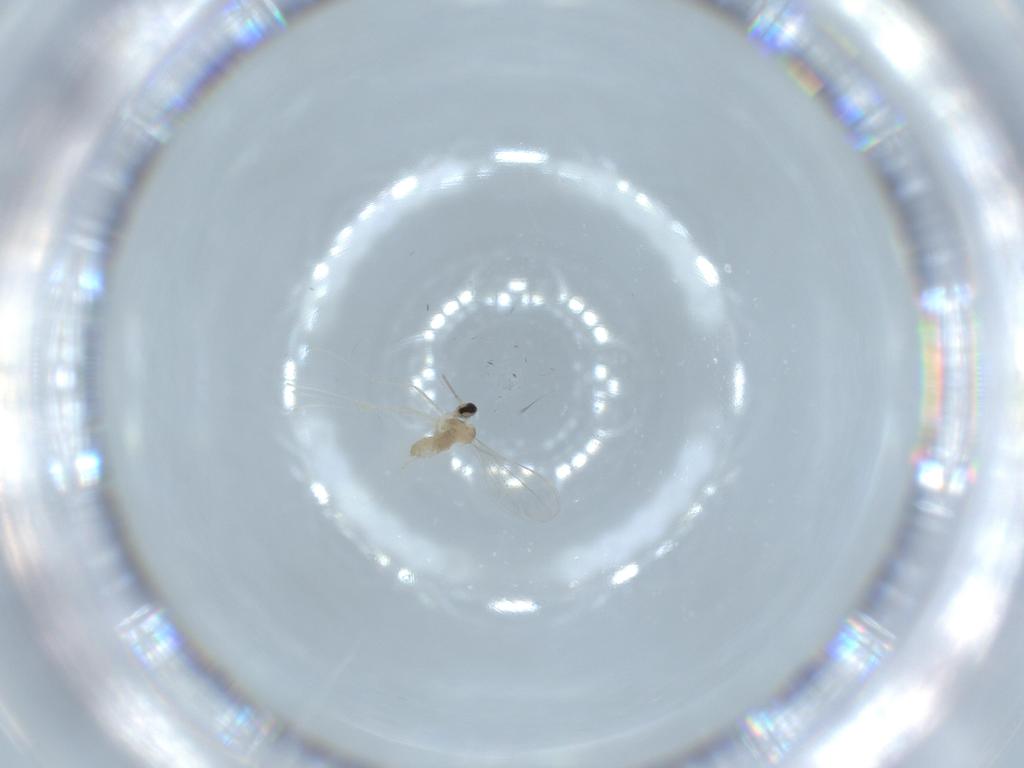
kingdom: Animalia
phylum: Arthropoda
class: Insecta
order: Diptera
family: Cecidomyiidae
